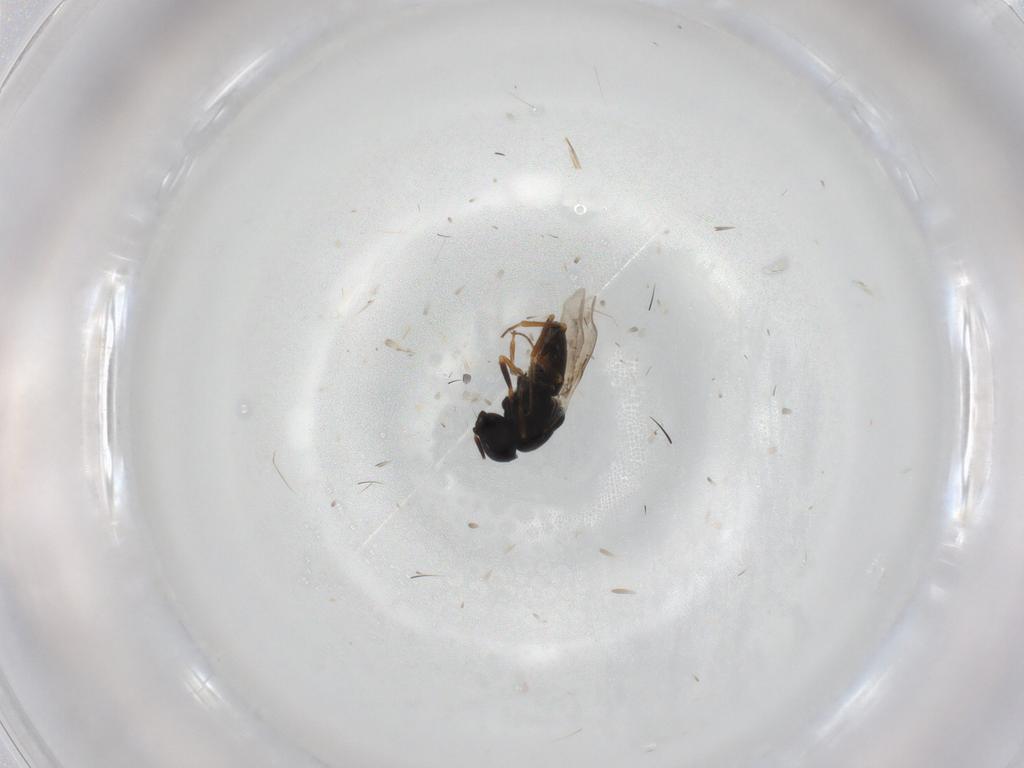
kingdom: Animalia
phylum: Arthropoda
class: Insecta
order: Hymenoptera
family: Scelionidae
